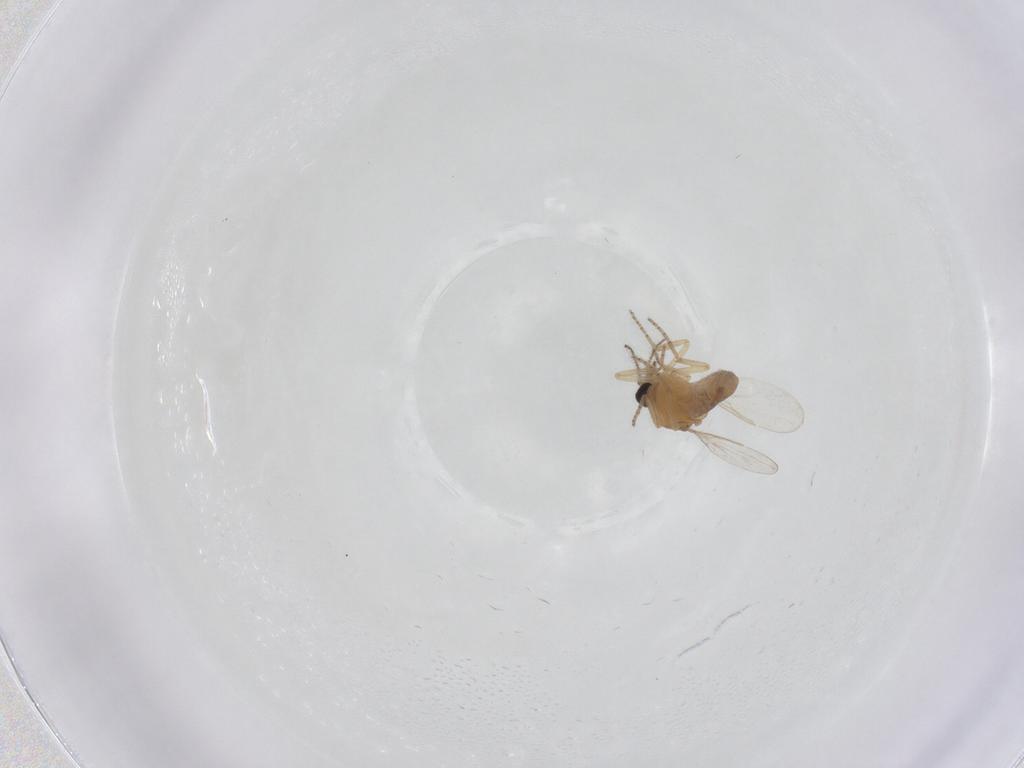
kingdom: Animalia
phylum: Arthropoda
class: Insecta
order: Diptera
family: Ceratopogonidae
